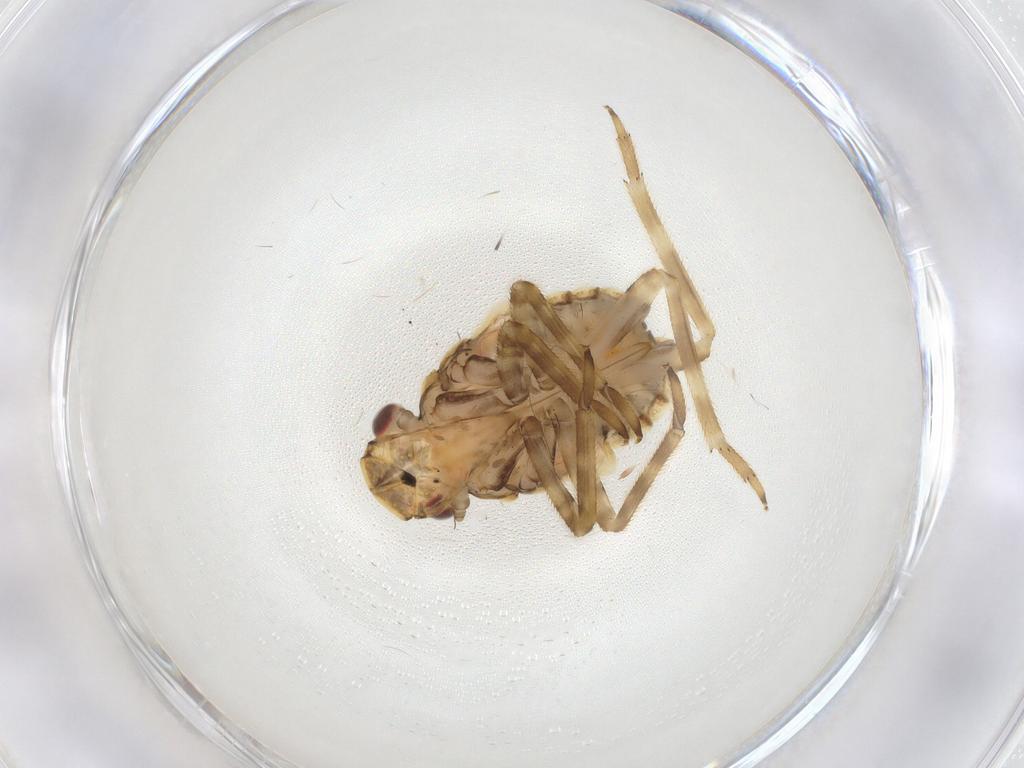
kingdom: Animalia
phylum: Arthropoda
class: Insecta
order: Hemiptera
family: Fulgoridae
